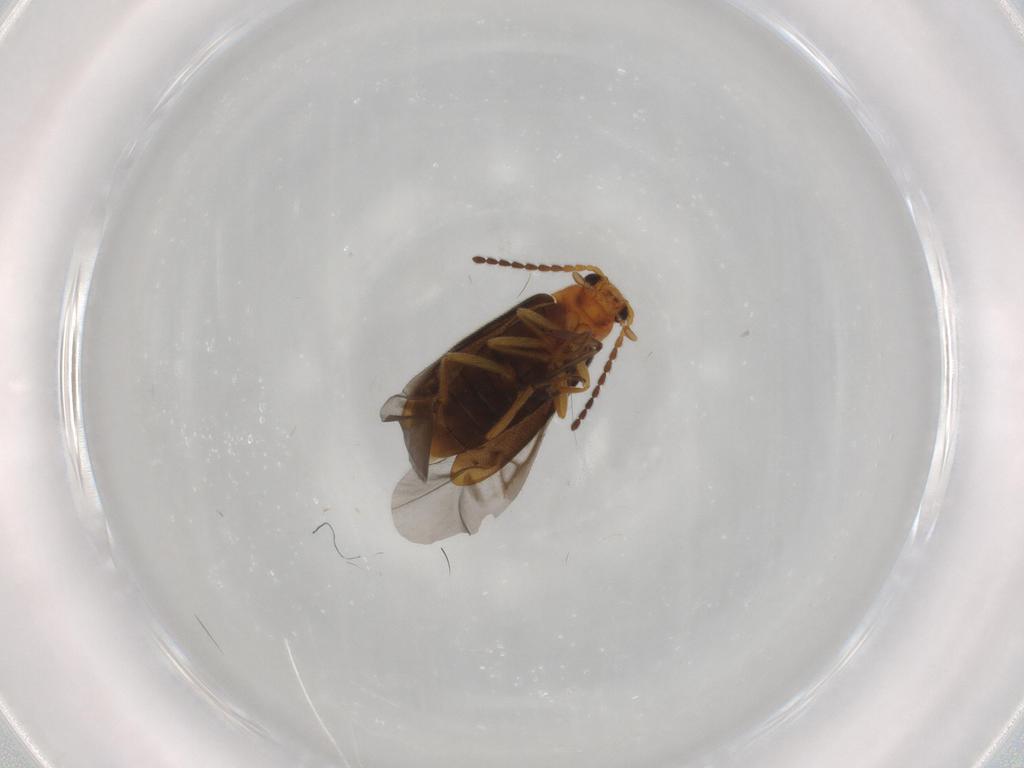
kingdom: Animalia
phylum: Arthropoda
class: Insecta
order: Coleoptera
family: Melandryidae
